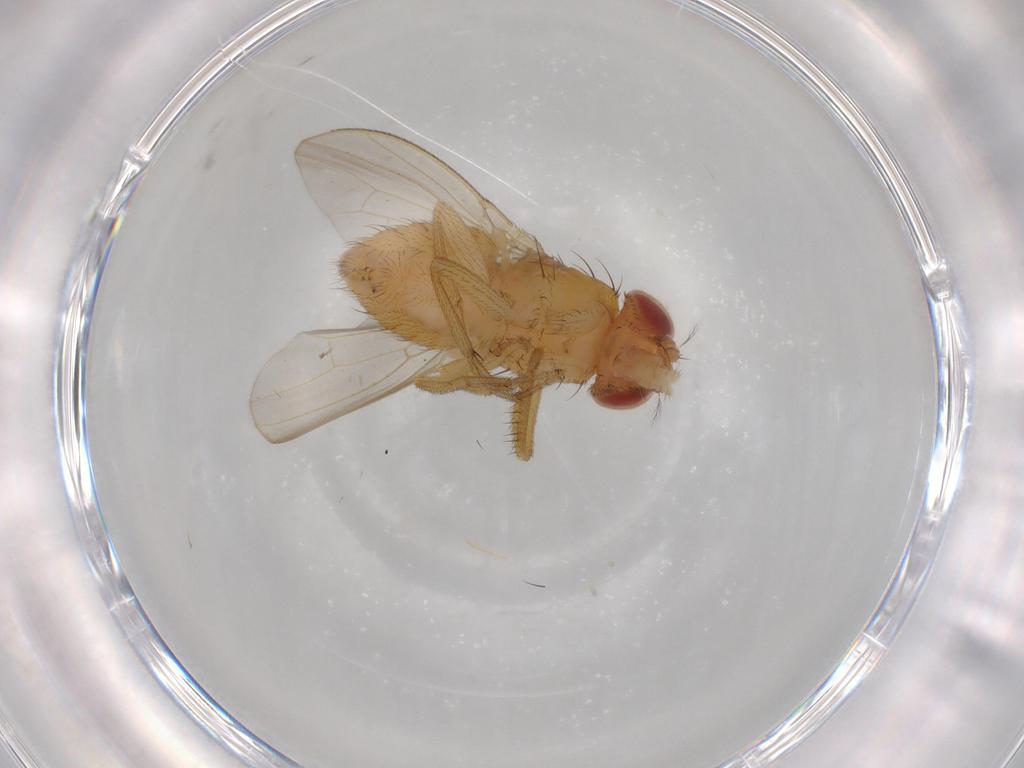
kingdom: Animalia
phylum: Arthropoda
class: Insecta
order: Diptera
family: Drosophilidae
